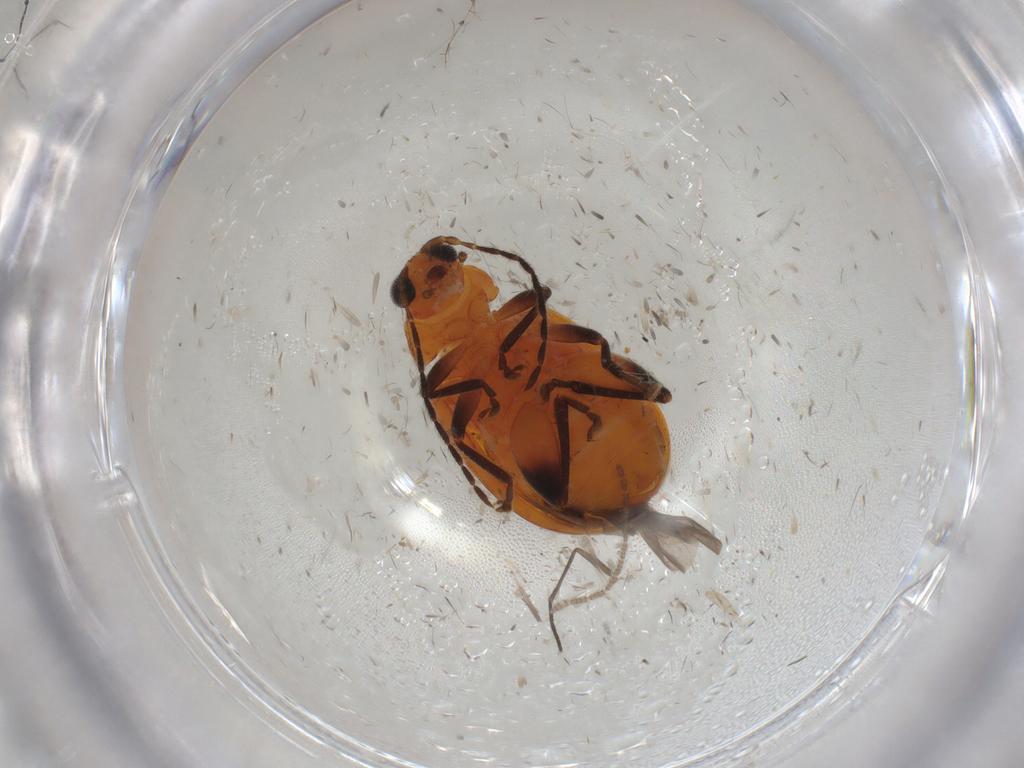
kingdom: Animalia
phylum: Arthropoda
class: Insecta
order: Coleoptera
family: Chrysomelidae
